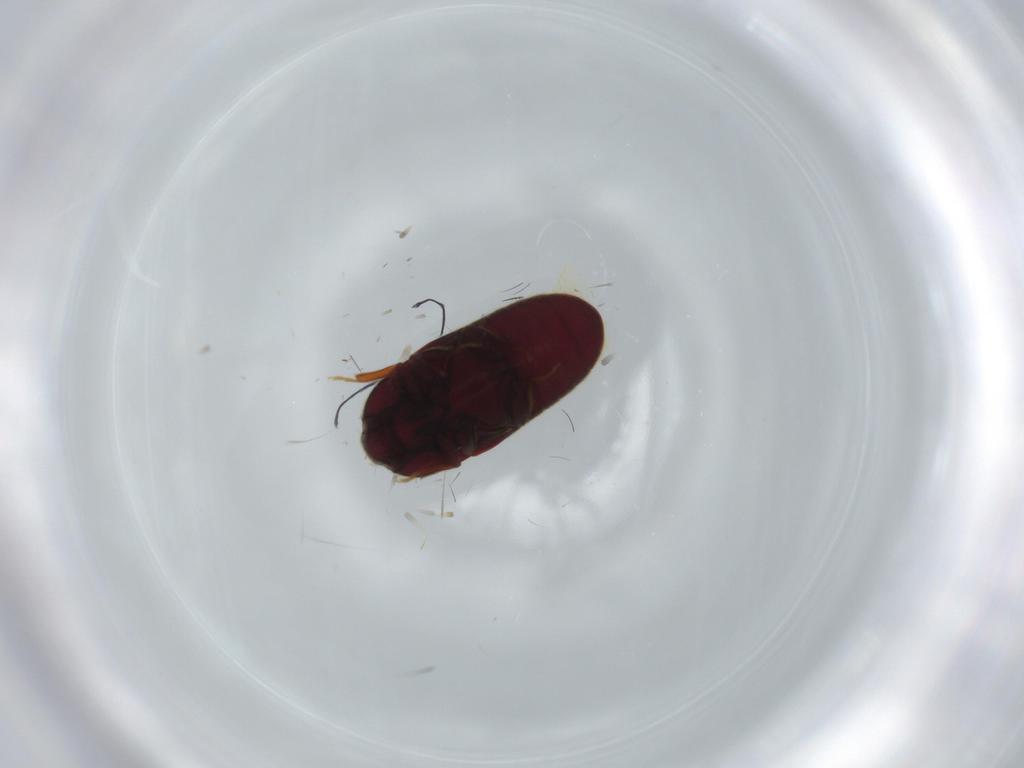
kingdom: Animalia
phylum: Arthropoda
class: Insecta
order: Coleoptera
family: Throscidae
